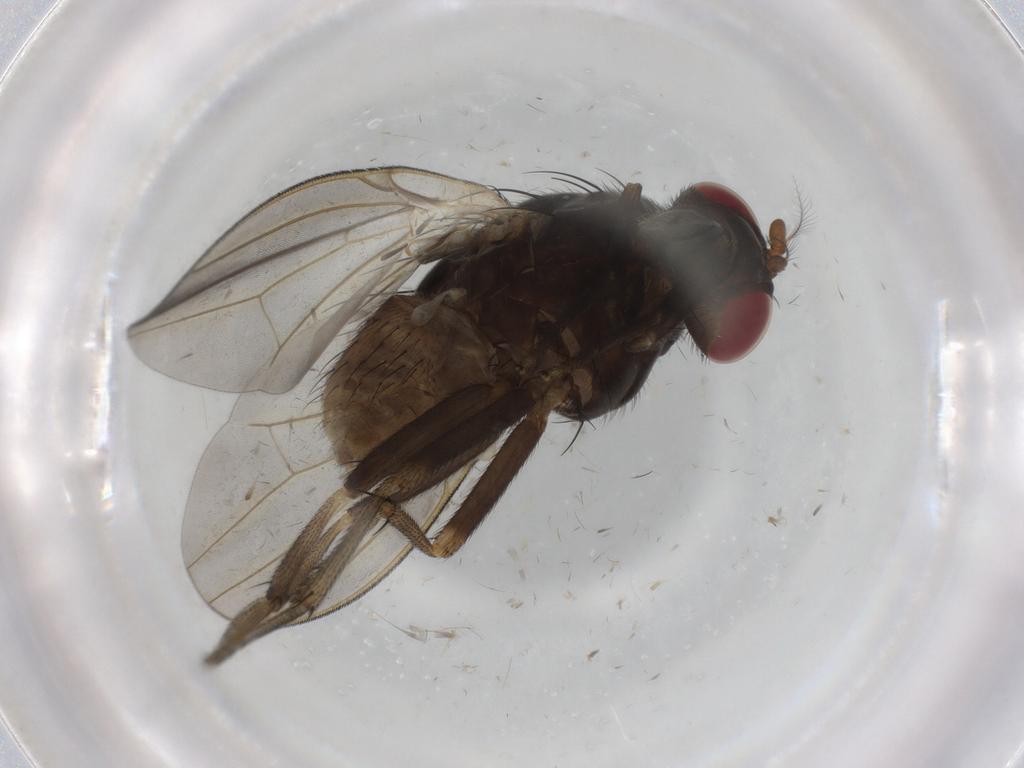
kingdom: Animalia
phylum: Arthropoda
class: Insecta
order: Diptera
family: Limoniidae
